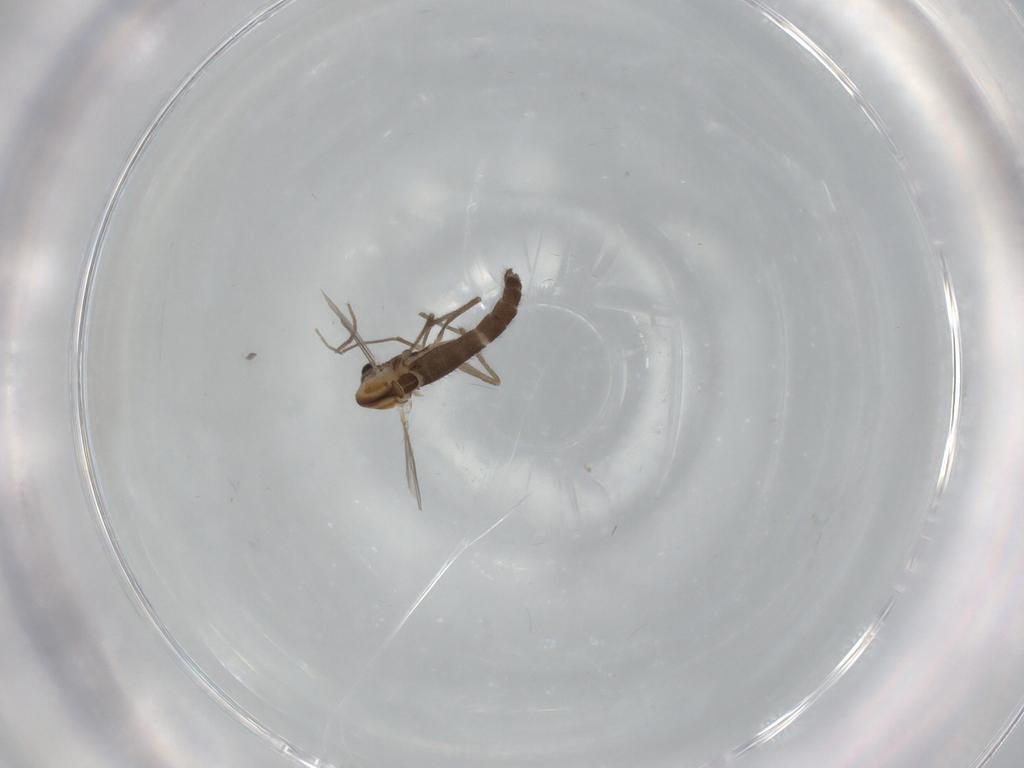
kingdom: Animalia
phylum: Arthropoda
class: Insecta
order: Diptera
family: Chironomidae
